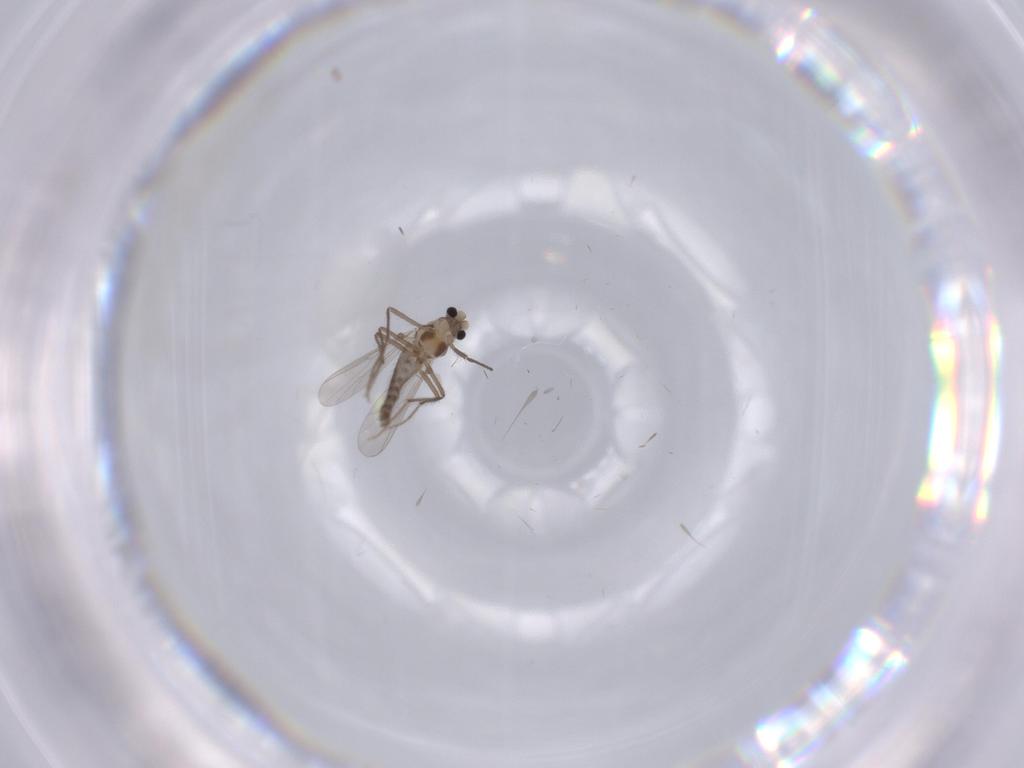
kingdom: Animalia
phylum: Arthropoda
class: Insecta
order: Diptera
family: Chironomidae
